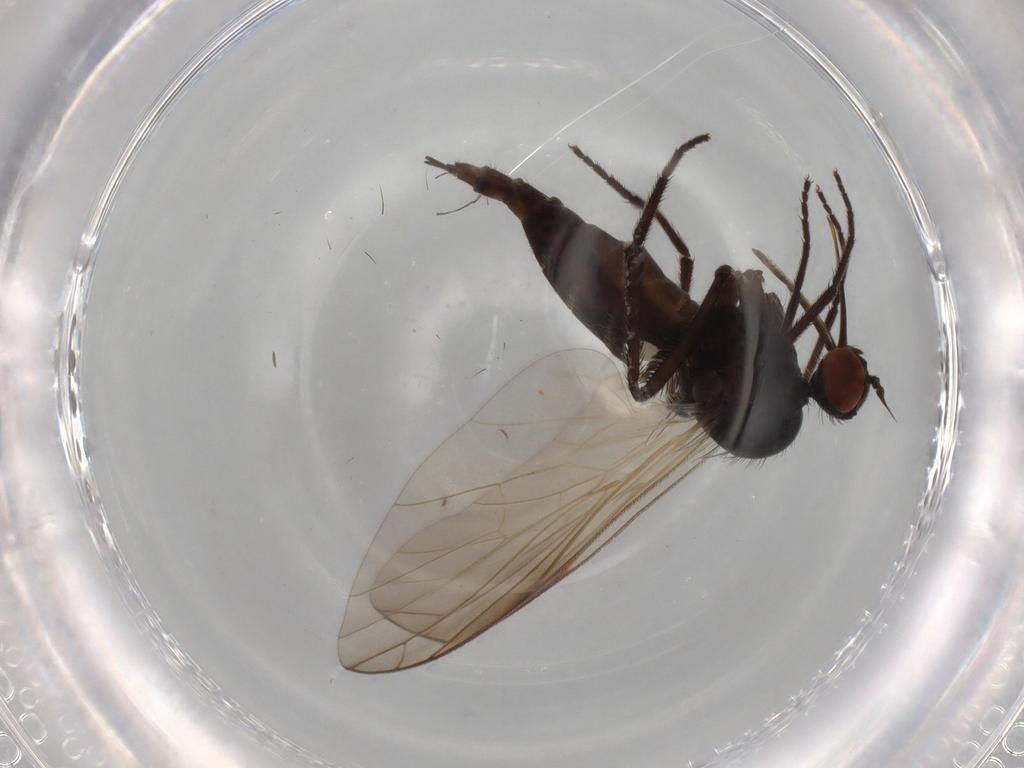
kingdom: Animalia
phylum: Arthropoda
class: Insecta
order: Diptera
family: Empididae
